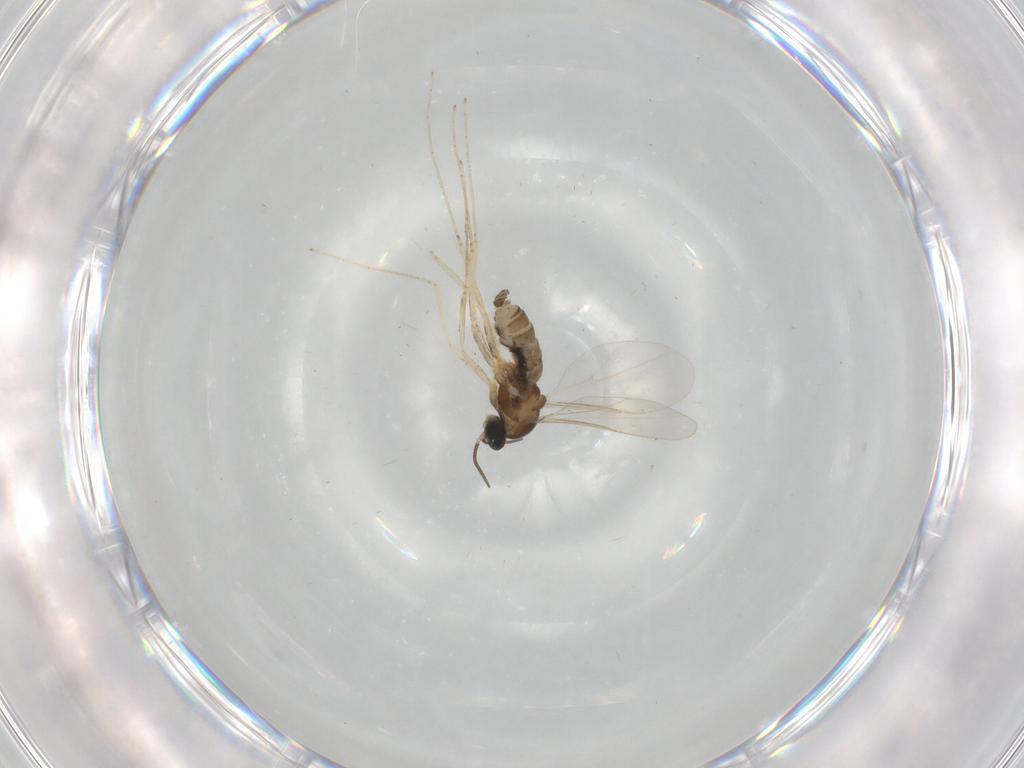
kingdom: Animalia
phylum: Arthropoda
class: Insecta
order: Diptera
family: Cecidomyiidae
